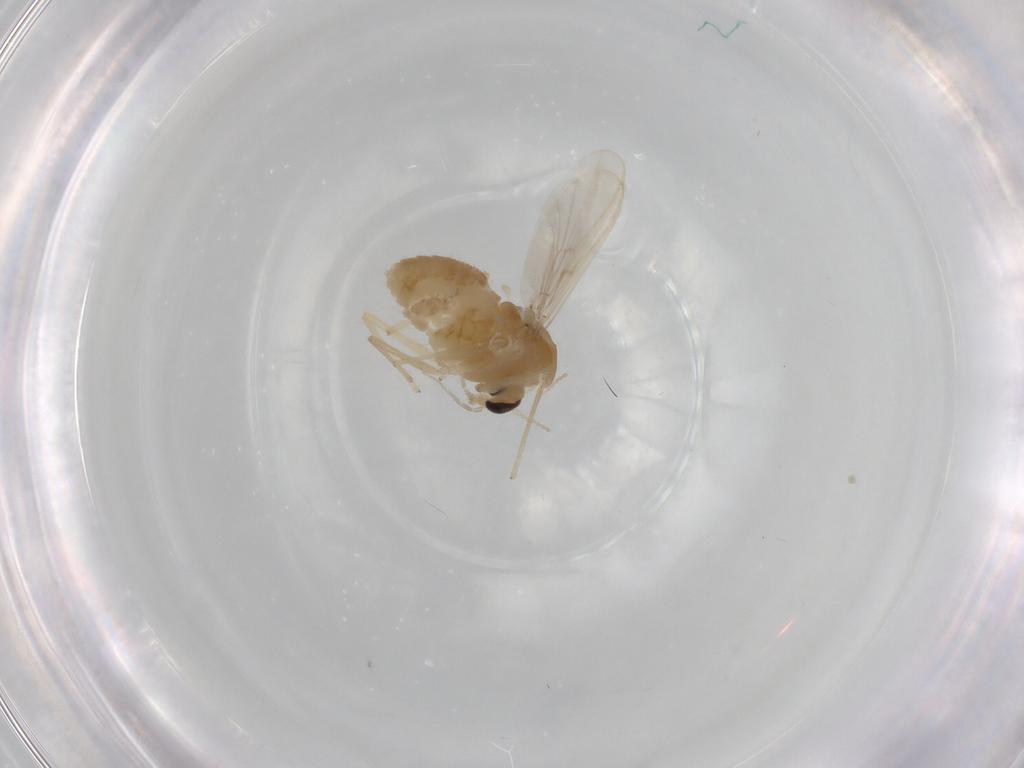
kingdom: Animalia
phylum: Arthropoda
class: Insecta
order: Diptera
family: Chironomidae
